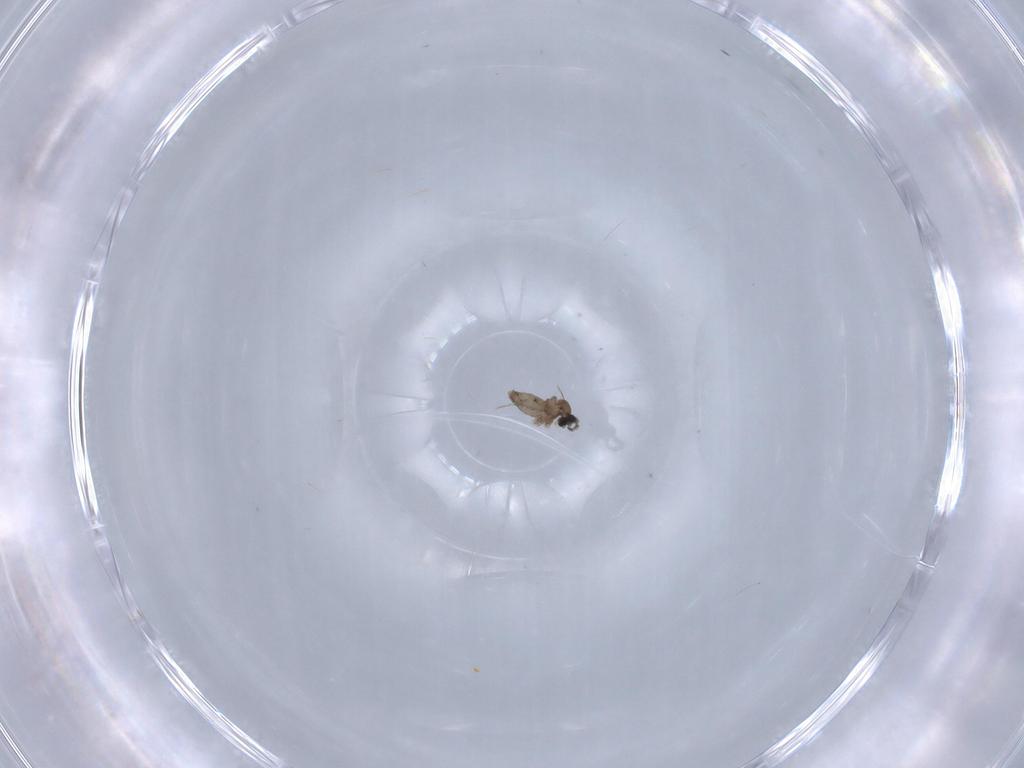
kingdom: Animalia
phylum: Arthropoda
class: Insecta
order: Diptera
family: Cecidomyiidae
